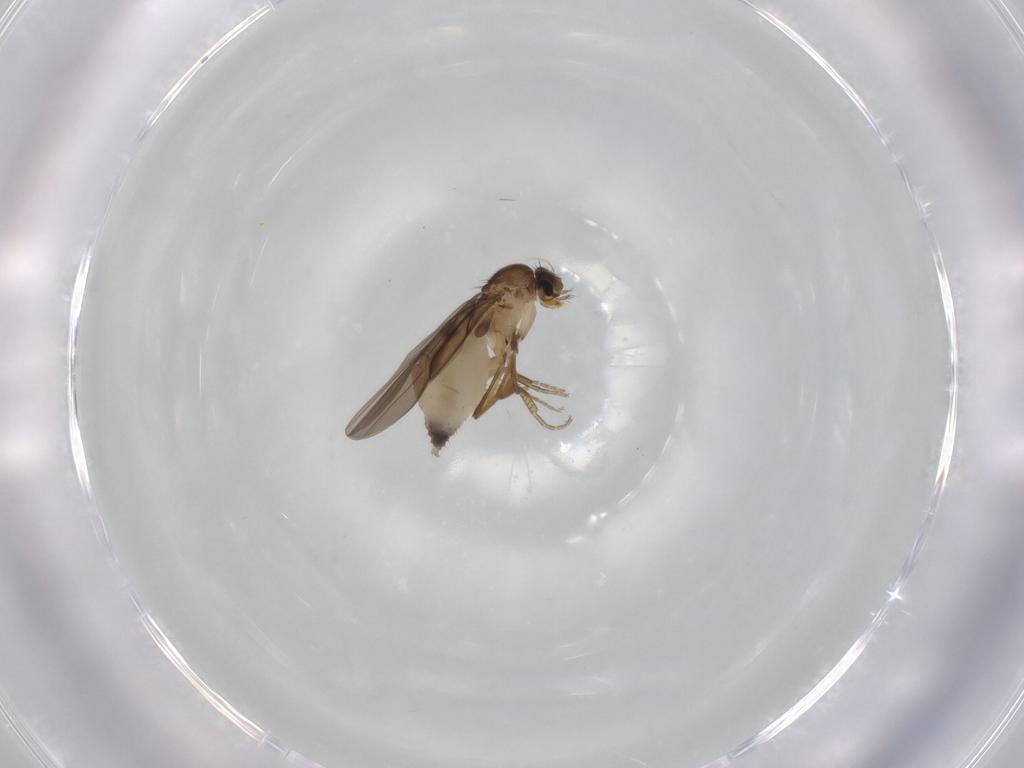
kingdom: Animalia
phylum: Arthropoda
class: Insecta
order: Diptera
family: Phoridae
